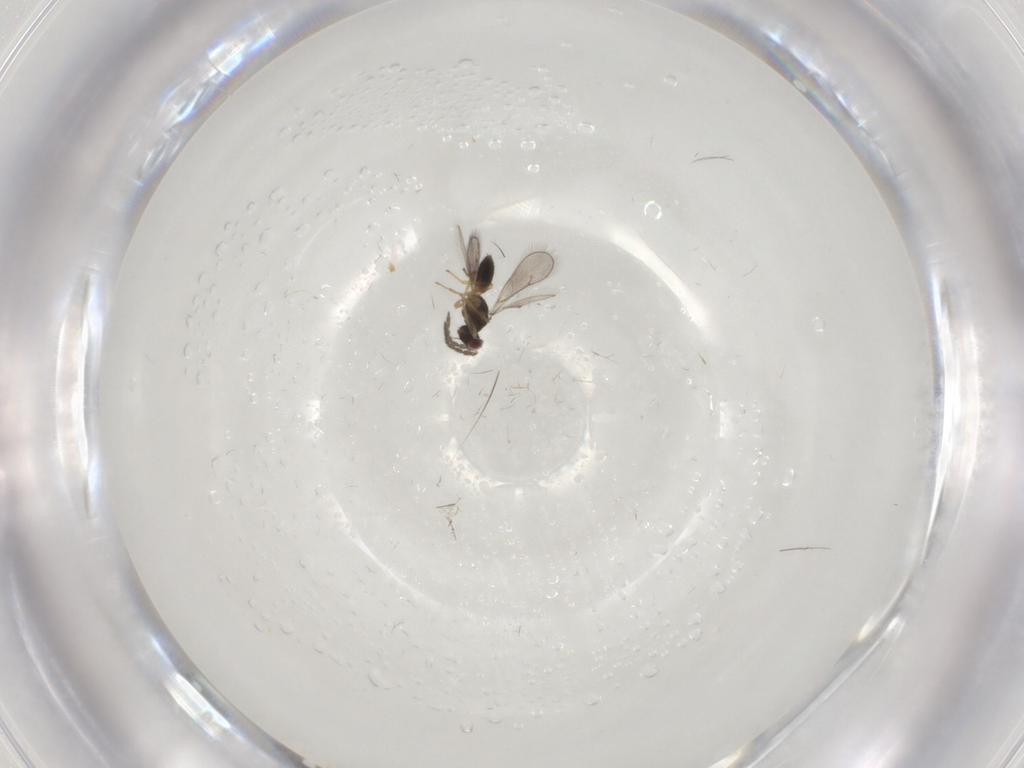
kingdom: Animalia
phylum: Arthropoda
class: Insecta
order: Hymenoptera
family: Eulophidae
